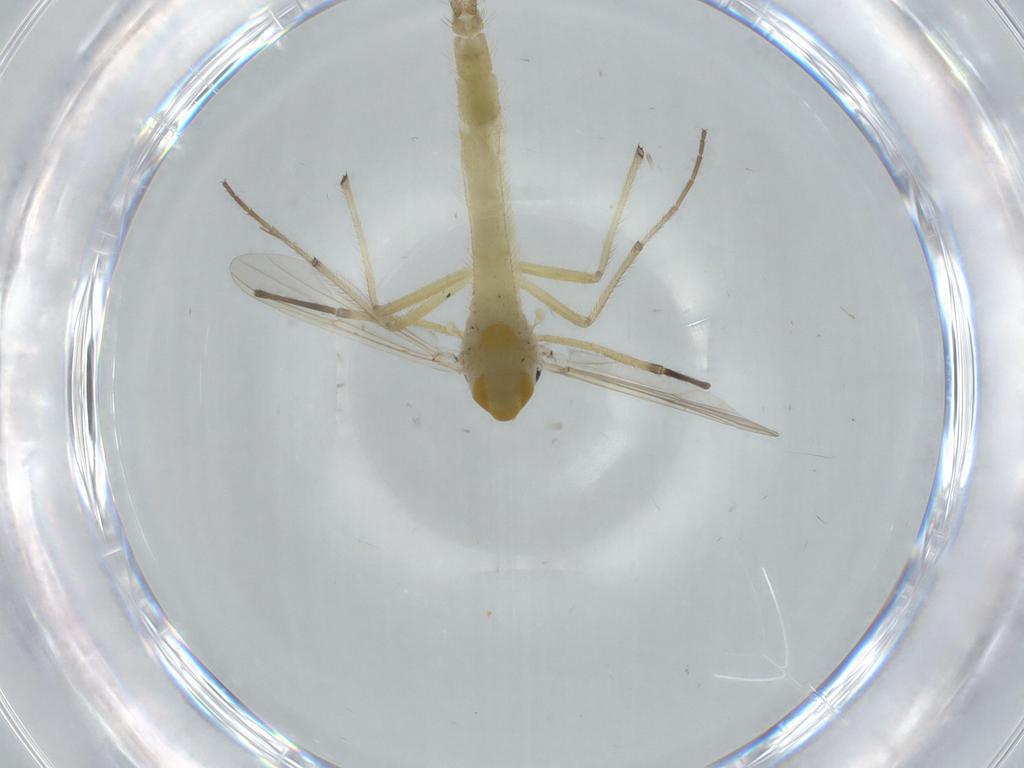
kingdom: Animalia
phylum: Arthropoda
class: Insecta
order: Diptera
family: Chironomidae
